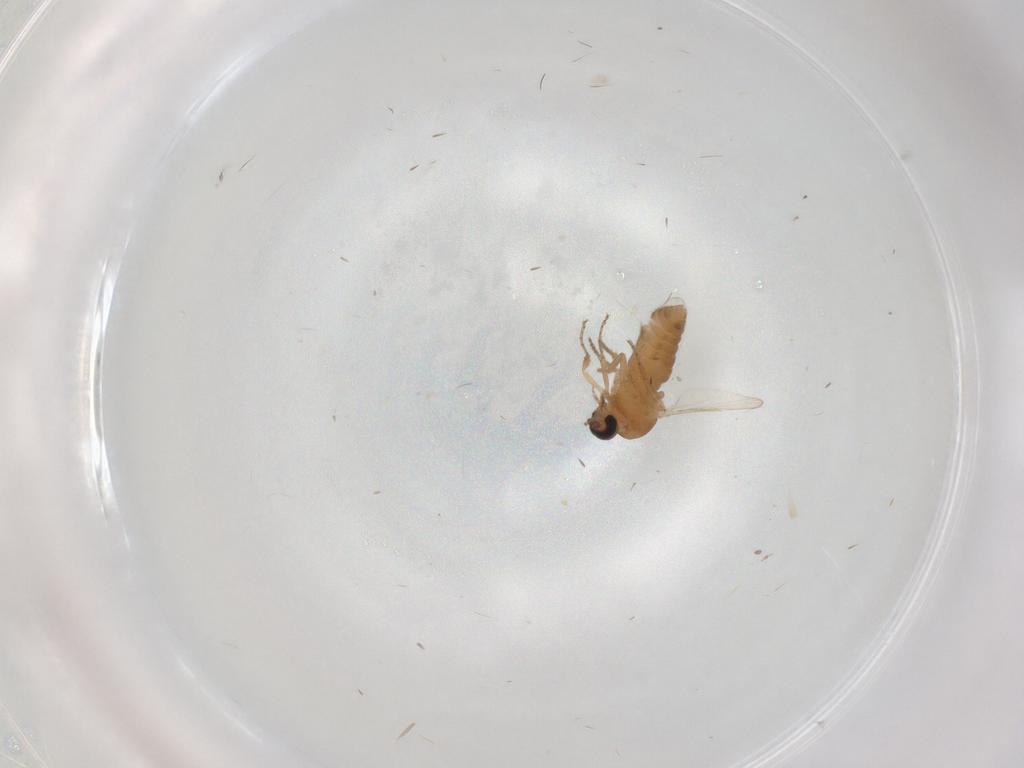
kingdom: Animalia
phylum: Arthropoda
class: Insecta
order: Diptera
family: Ceratopogonidae
